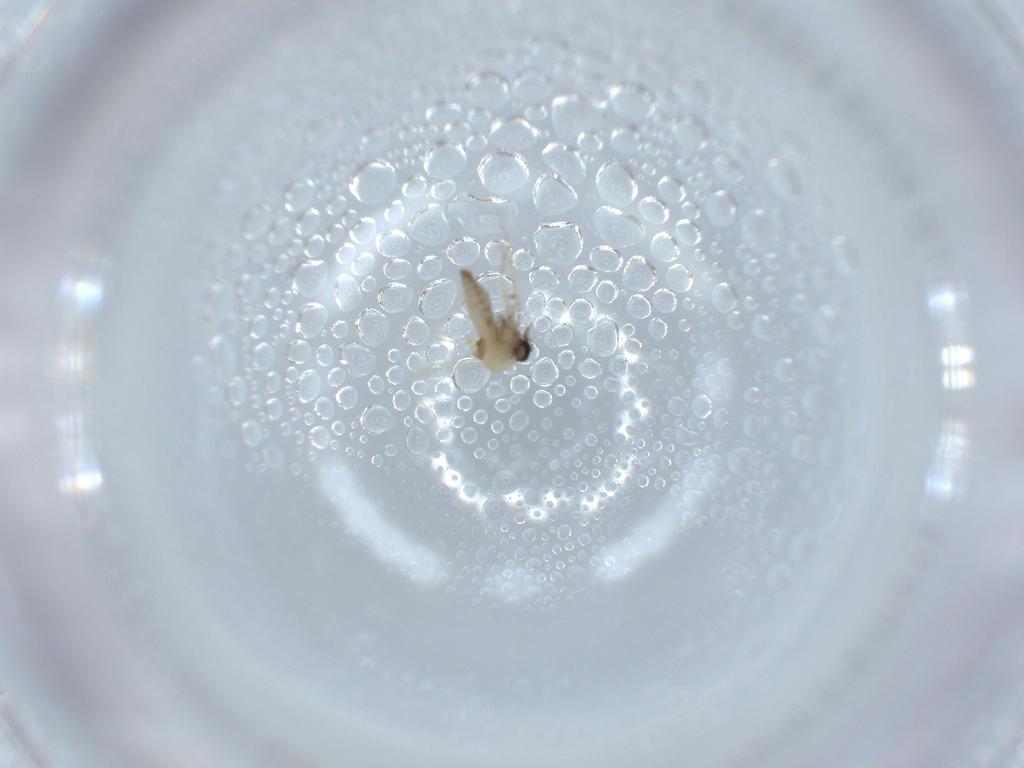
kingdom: Animalia
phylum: Arthropoda
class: Insecta
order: Diptera
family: Ceratopogonidae
